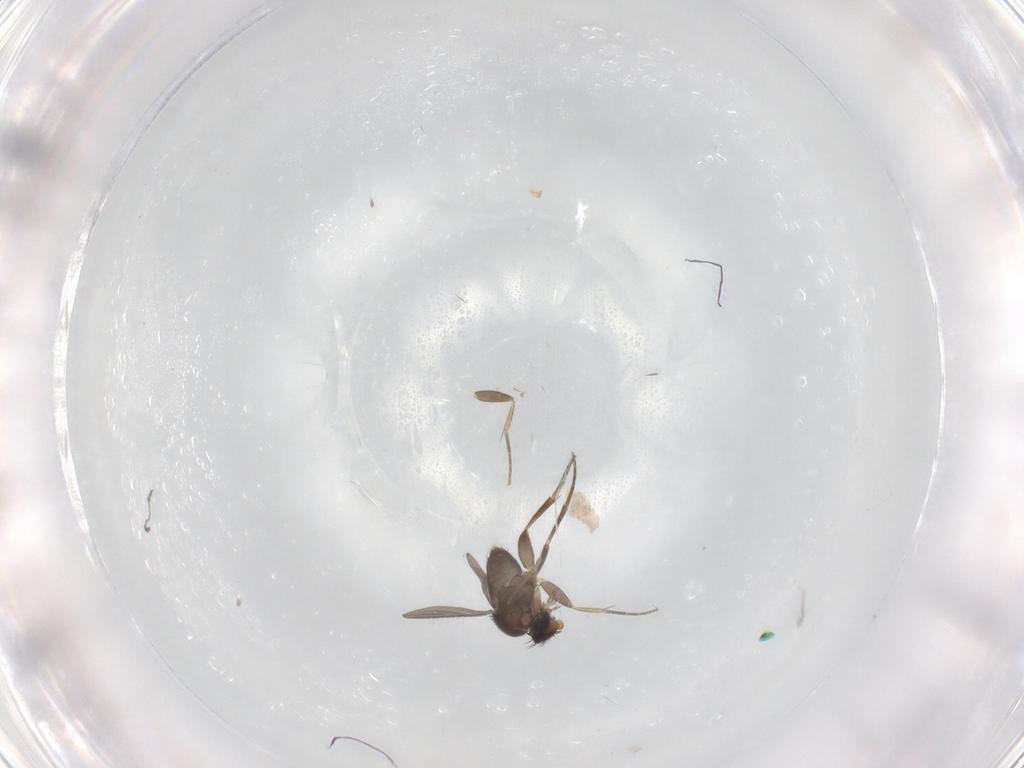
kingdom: Animalia
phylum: Arthropoda
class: Insecta
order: Diptera
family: Phoridae
